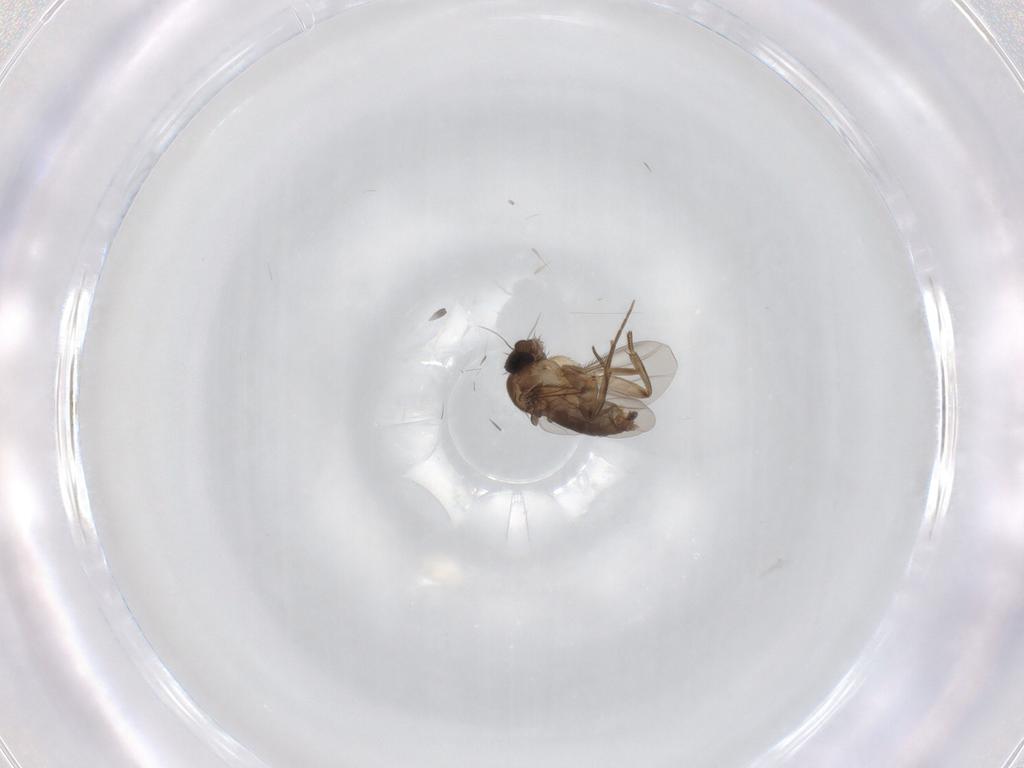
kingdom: Animalia
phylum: Arthropoda
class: Insecta
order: Diptera
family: Phoridae
